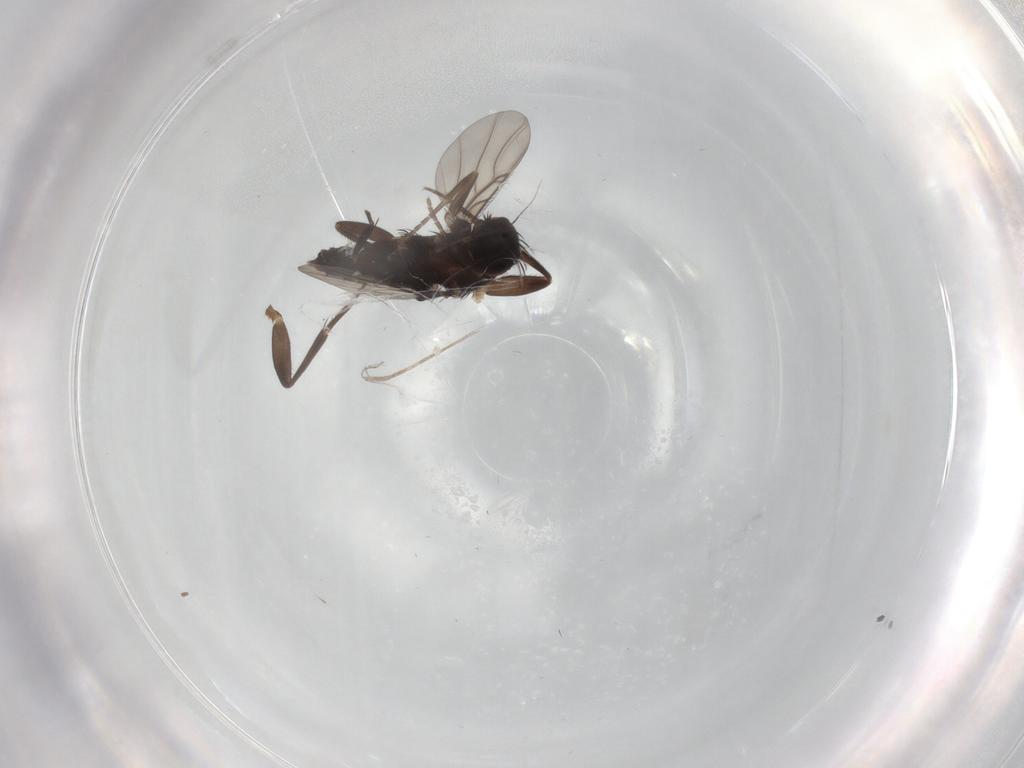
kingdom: Animalia
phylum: Arthropoda
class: Insecta
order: Diptera
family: Phoridae
